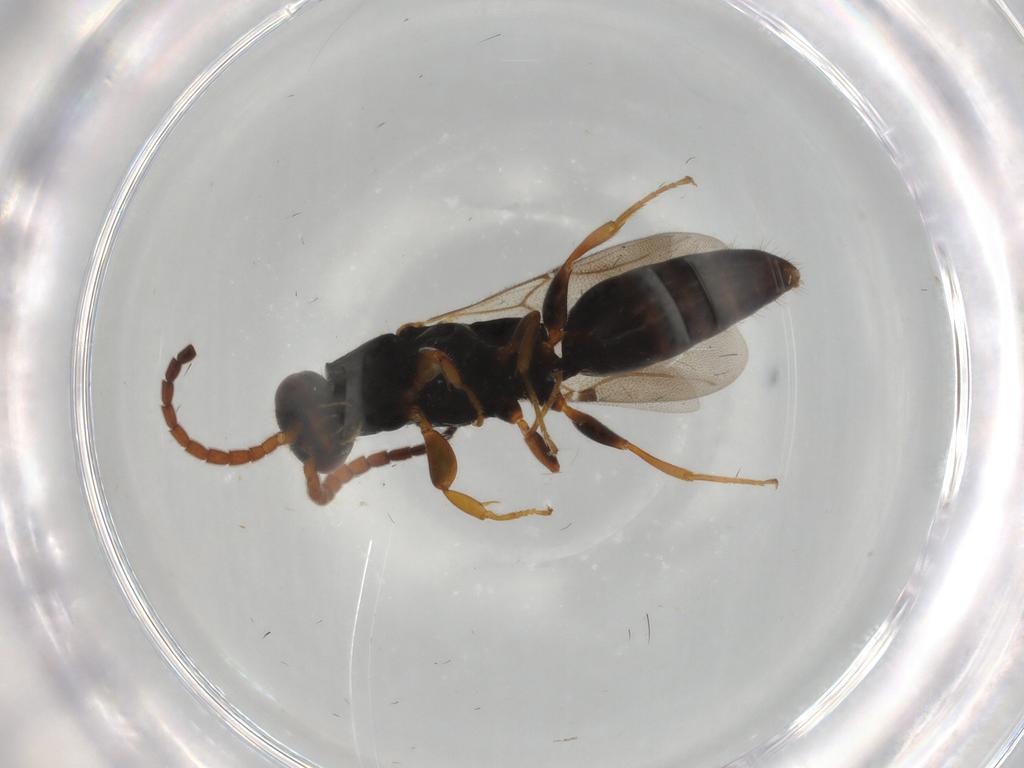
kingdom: Animalia
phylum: Arthropoda
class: Insecta
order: Hymenoptera
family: Bethylidae
